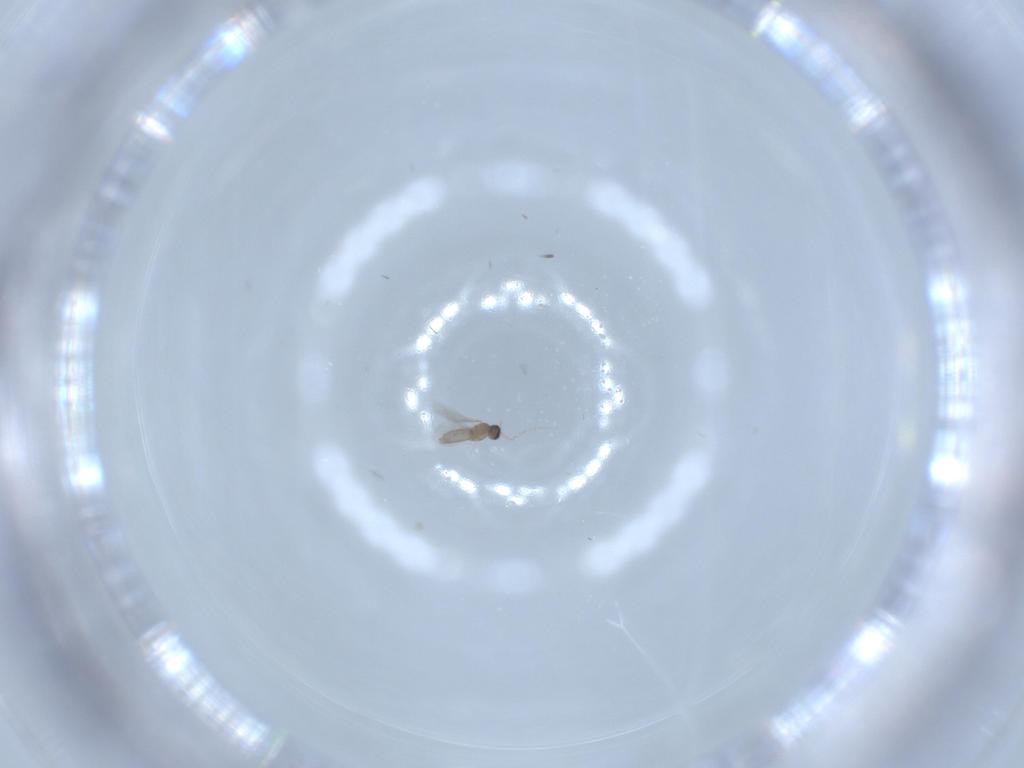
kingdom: Animalia
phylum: Arthropoda
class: Insecta
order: Diptera
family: Cecidomyiidae
